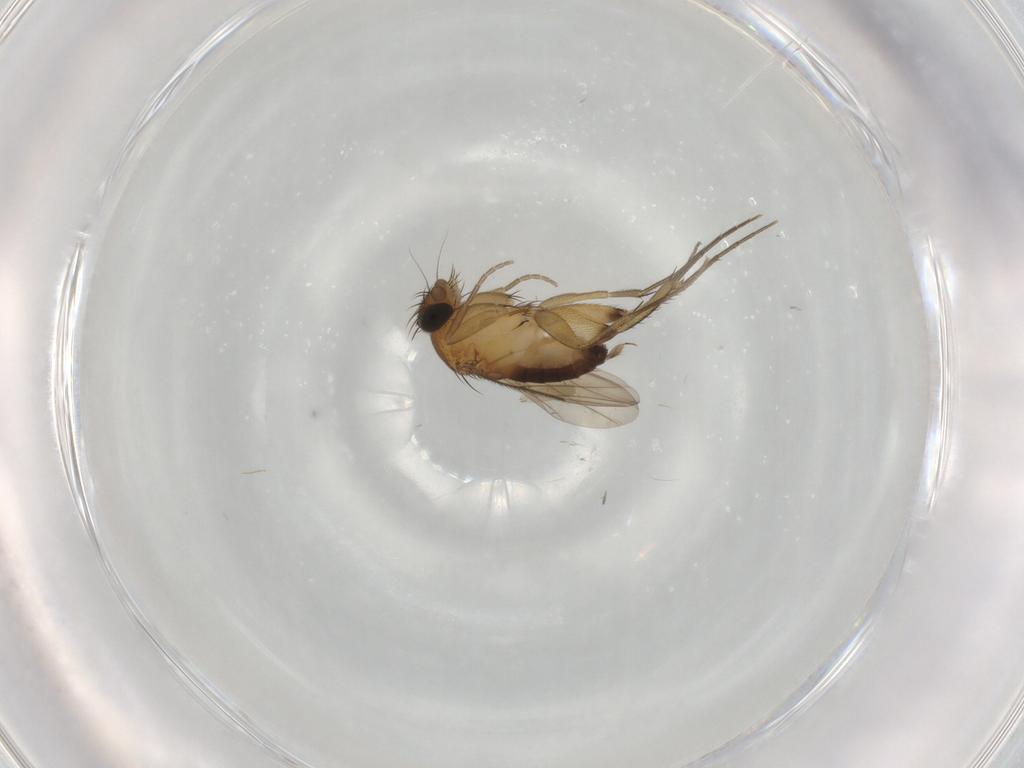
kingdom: Animalia
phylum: Arthropoda
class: Insecta
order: Diptera
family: Phoridae
